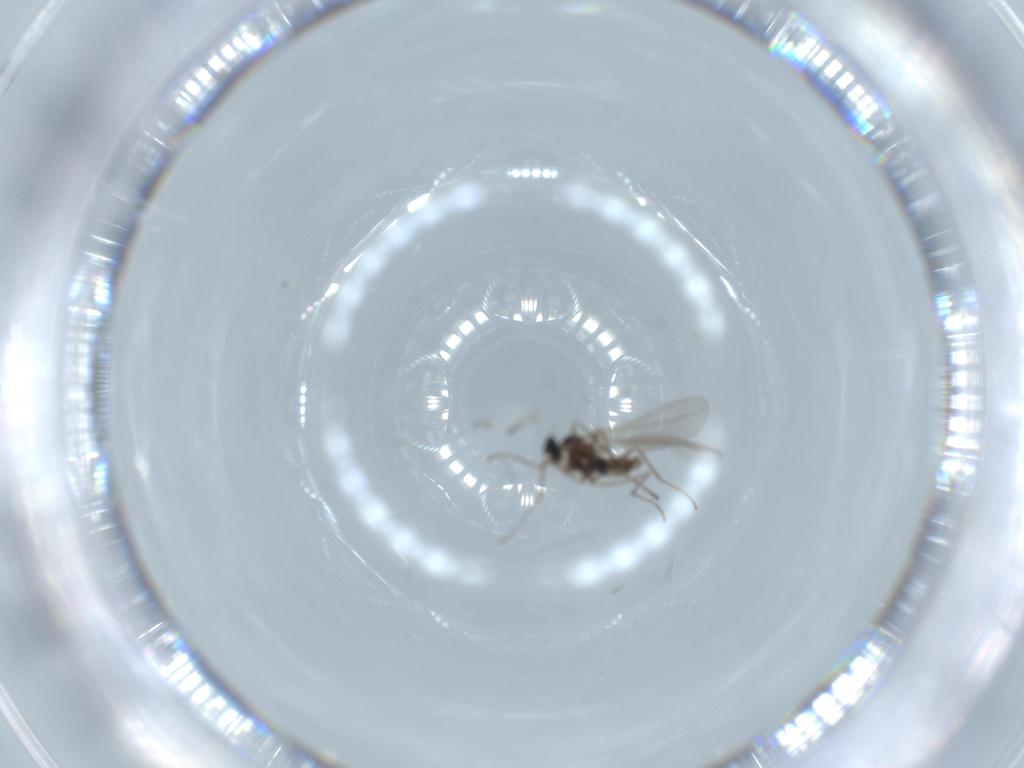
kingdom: Animalia
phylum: Arthropoda
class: Insecta
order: Diptera
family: Cecidomyiidae
